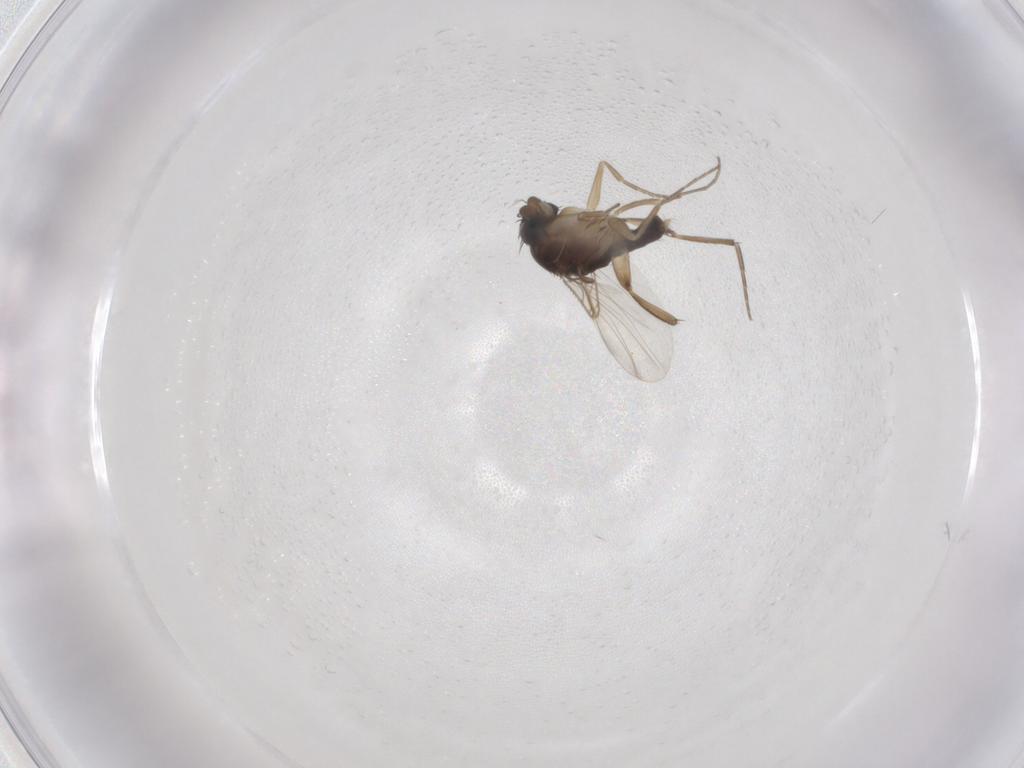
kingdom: Animalia
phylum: Arthropoda
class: Insecta
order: Diptera
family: Phoridae
